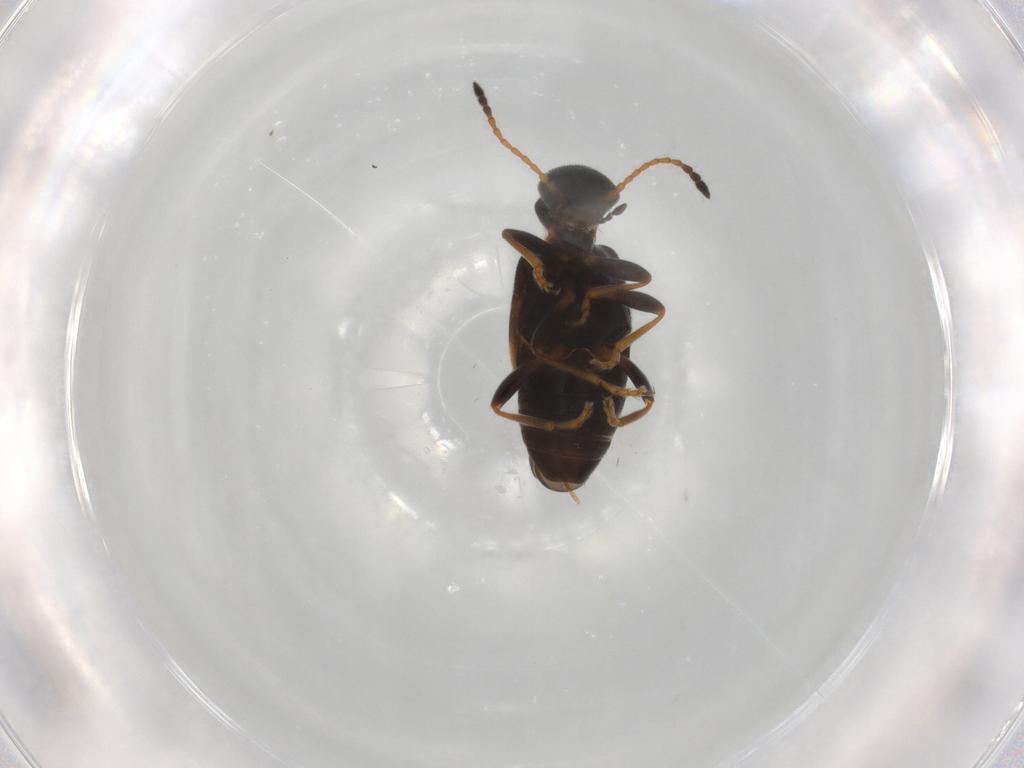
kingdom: Animalia
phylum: Arthropoda
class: Insecta
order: Coleoptera
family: Anthicidae
